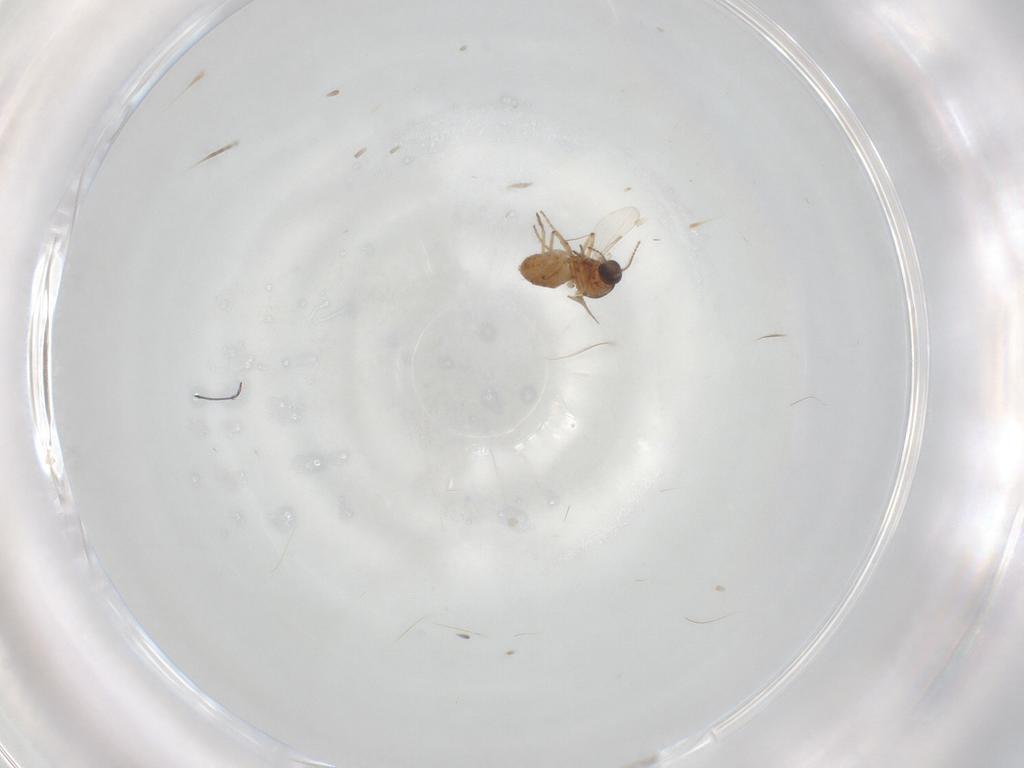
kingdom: Animalia
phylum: Arthropoda
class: Insecta
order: Diptera
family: Ceratopogonidae
